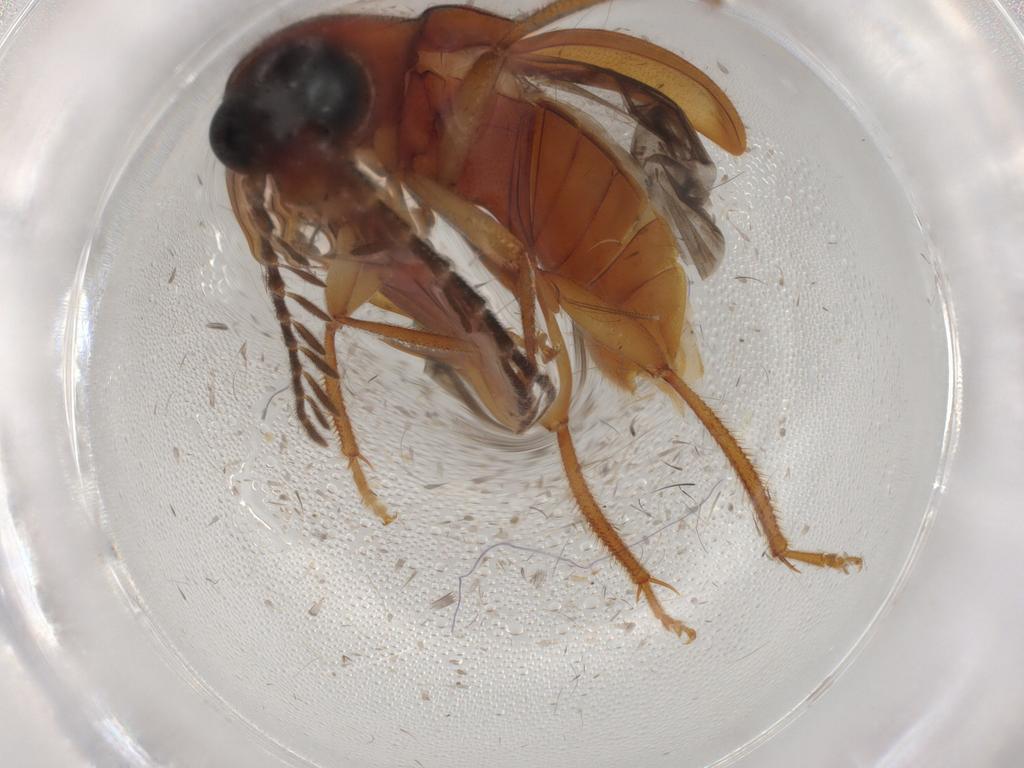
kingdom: Animalia
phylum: Arthropoda
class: Insecta
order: Coleoptera
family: Ptilodactylidae
